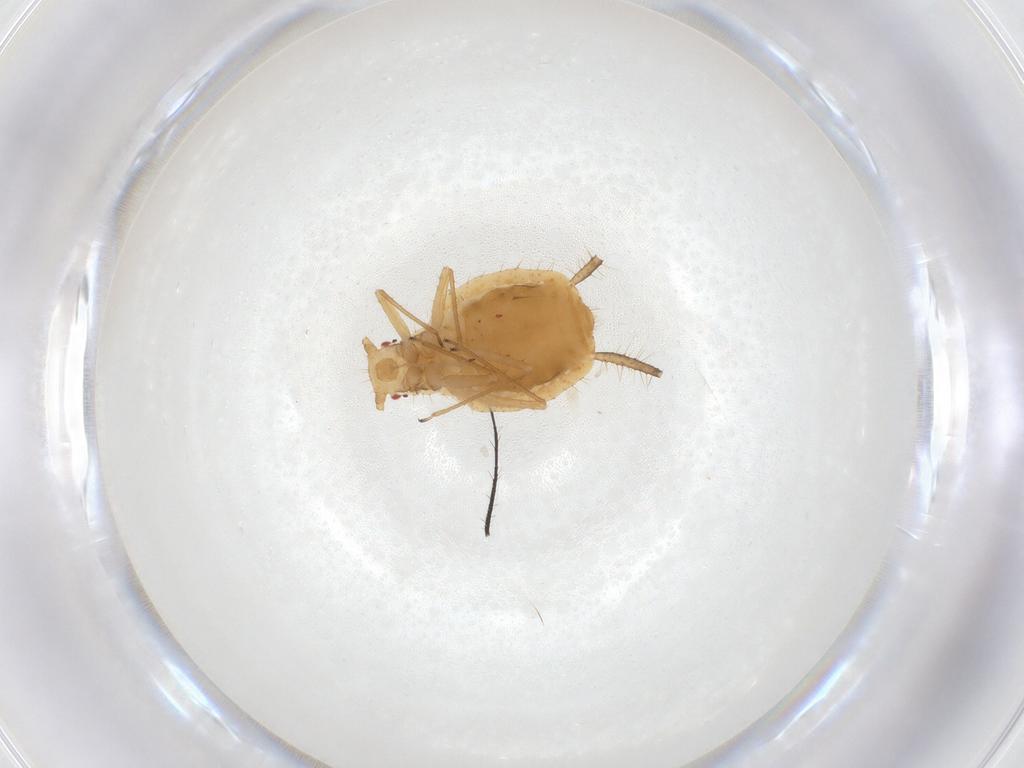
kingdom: Animalia
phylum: Arthropoda
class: Insecta
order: Hemiptera
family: Aphididae
